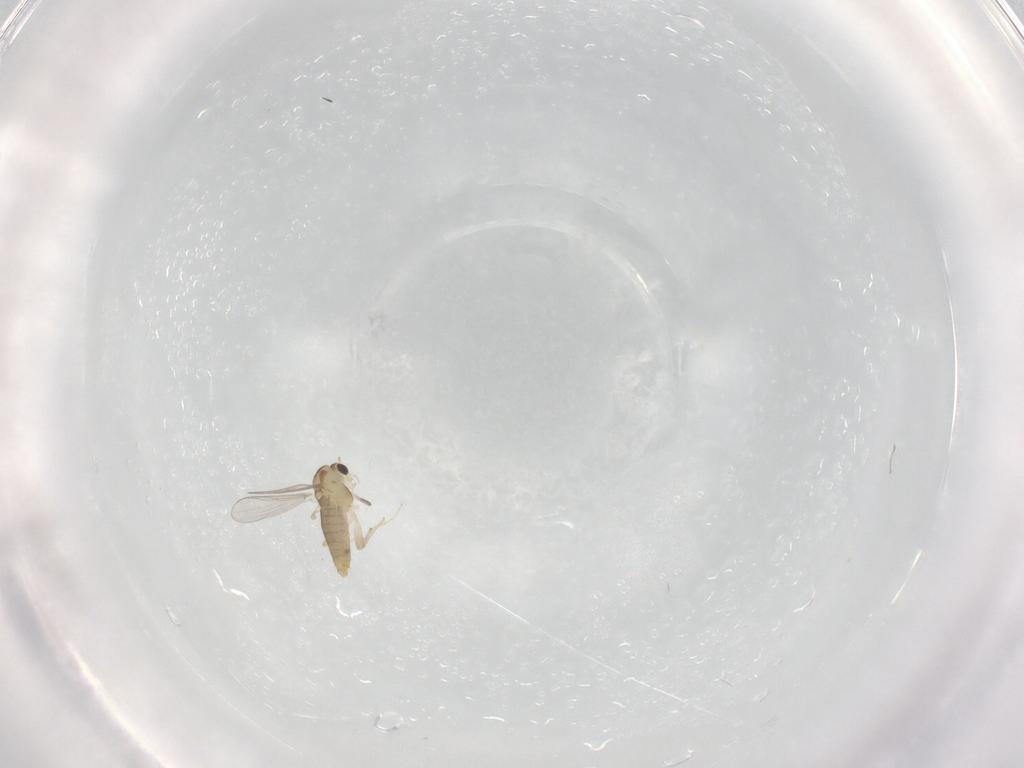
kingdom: Animalia
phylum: Arthropoda
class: Insecta
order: Diptera
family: Chironomidae
